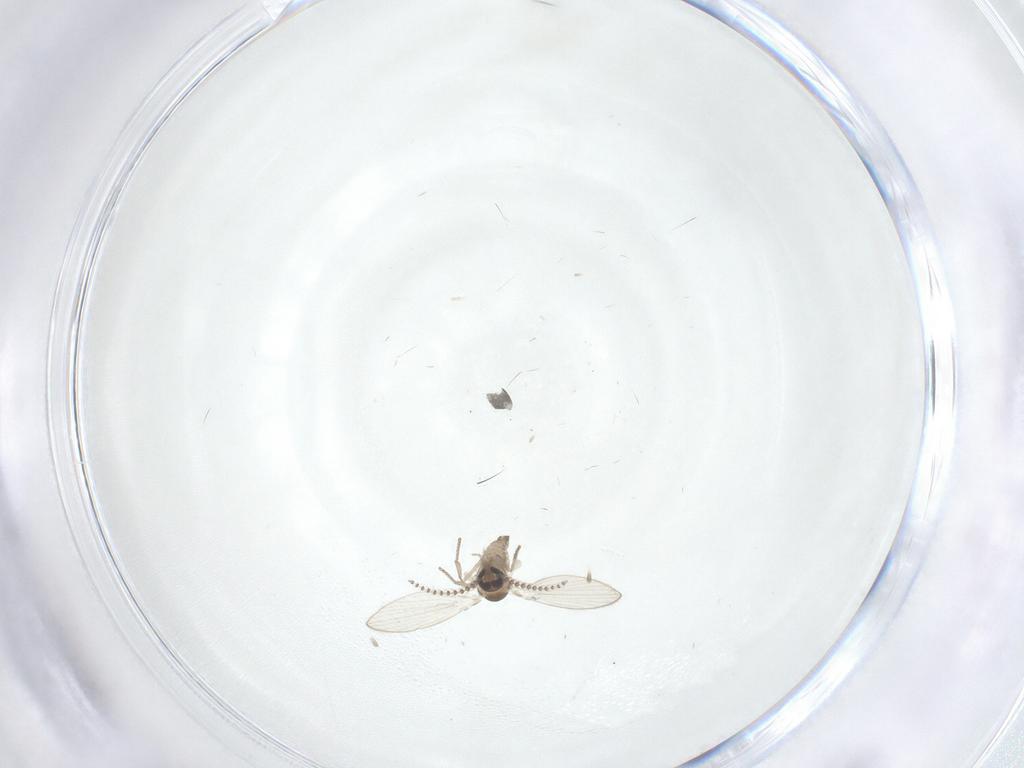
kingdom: Animalia
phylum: Arthropoda
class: Insecta
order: Diptera
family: Psychodidae
